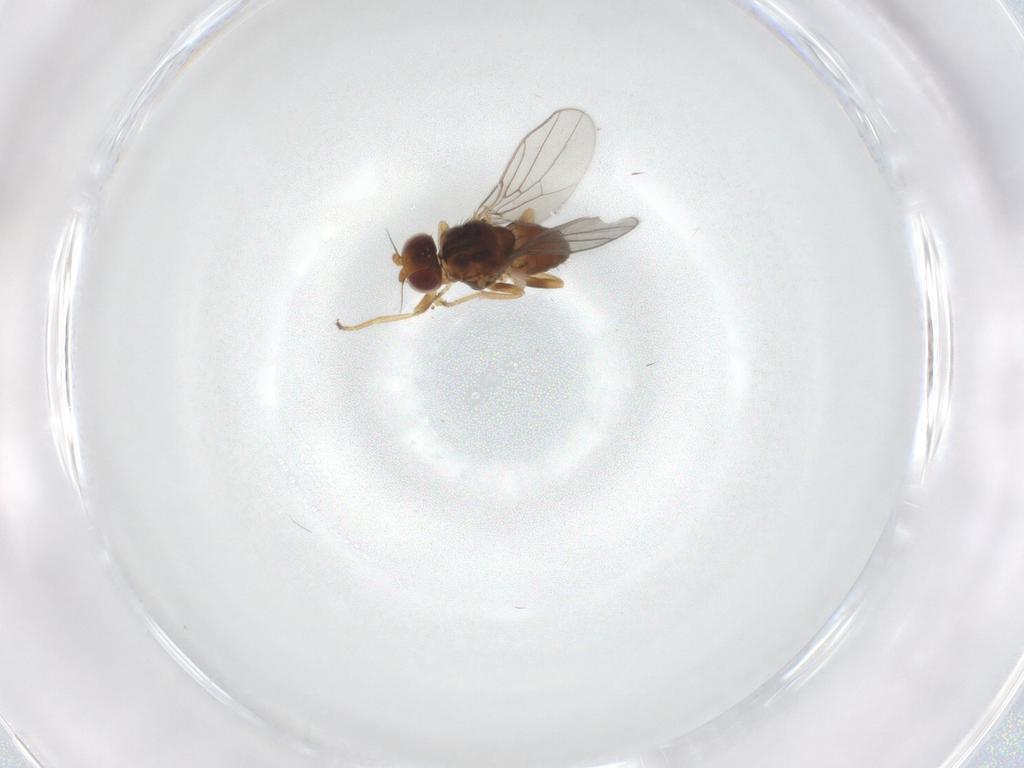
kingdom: Animalia
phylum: Arthropoda
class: Insecta
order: Diptera
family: Chloropidae
